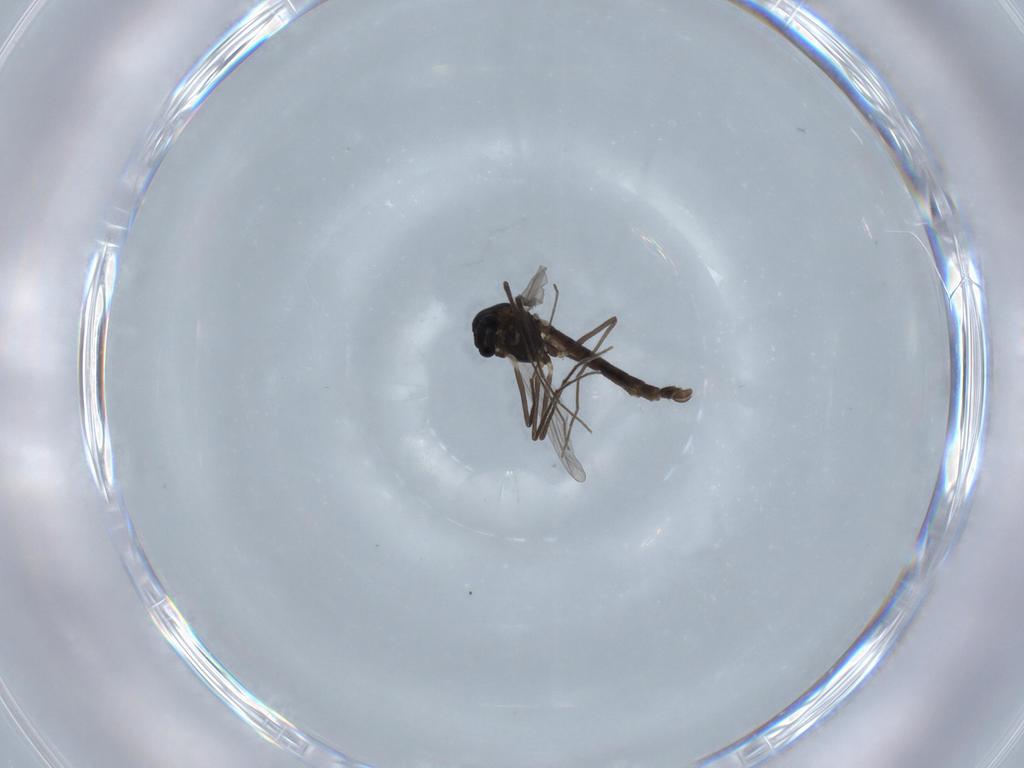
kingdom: Animalia
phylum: Arthropoda
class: Insecta
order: Diptera
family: Chironomidae
